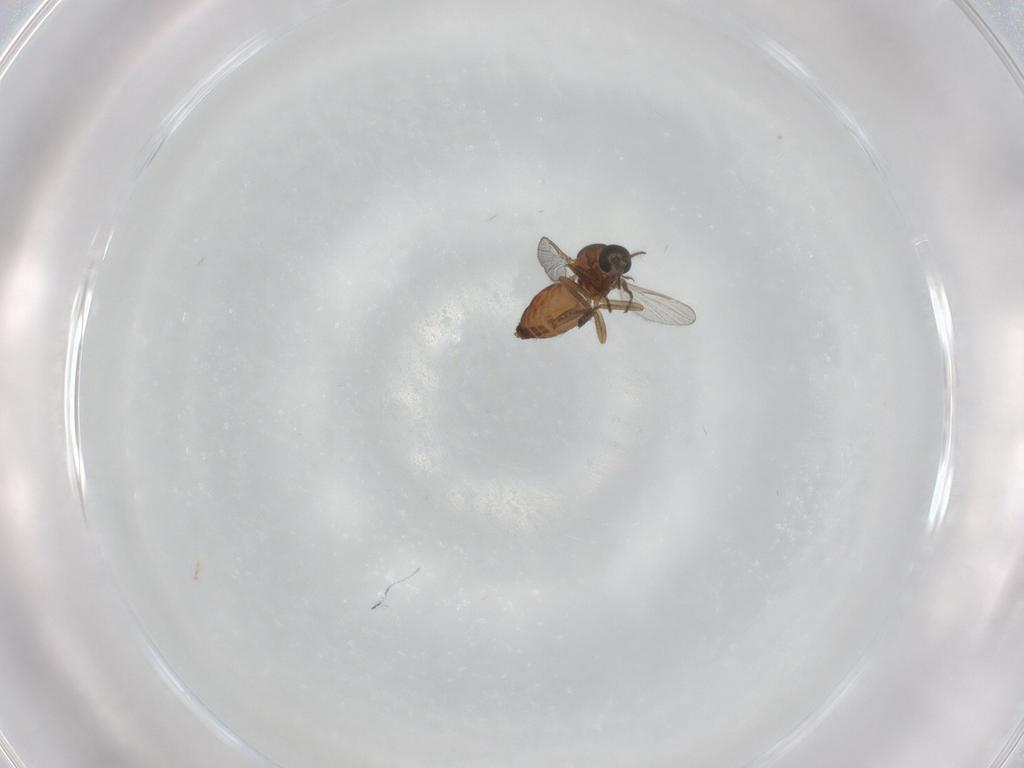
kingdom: Animalia
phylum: Arthropoda
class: Insecta
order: Diptera
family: Ceratopogonidae
